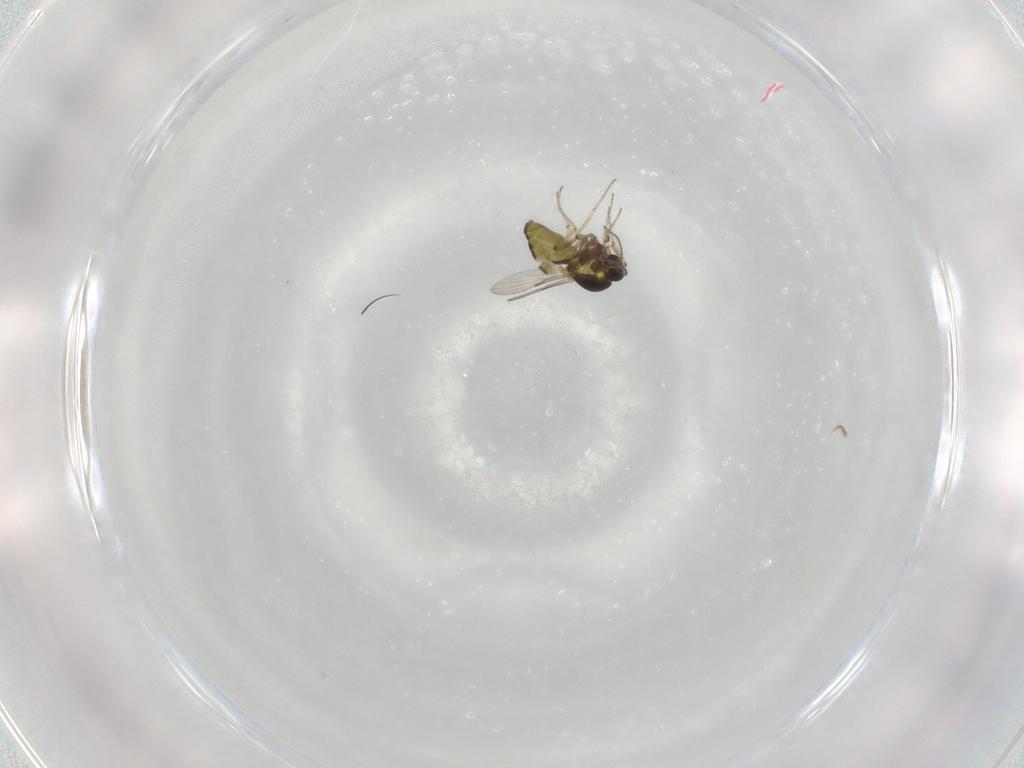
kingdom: Animalia
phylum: Arthropoda
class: Insecta
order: Diptera
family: Ceratopogonidae
